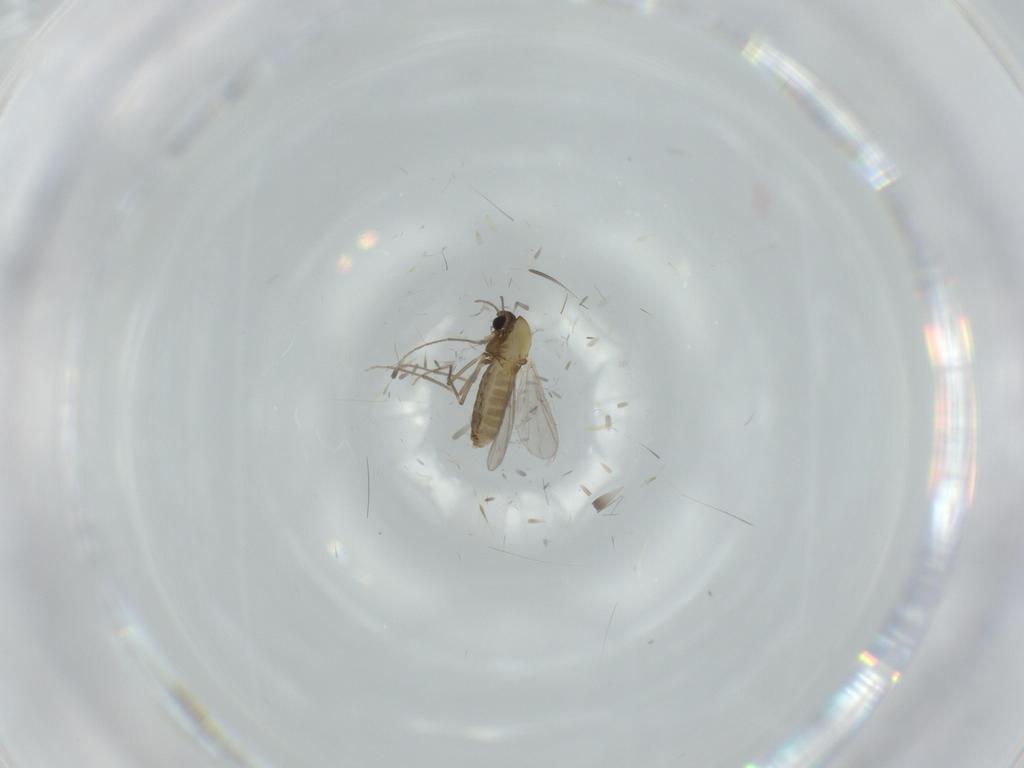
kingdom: Animalia
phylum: Arthropoda
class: Insecta
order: Diptera
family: Chironomidae
